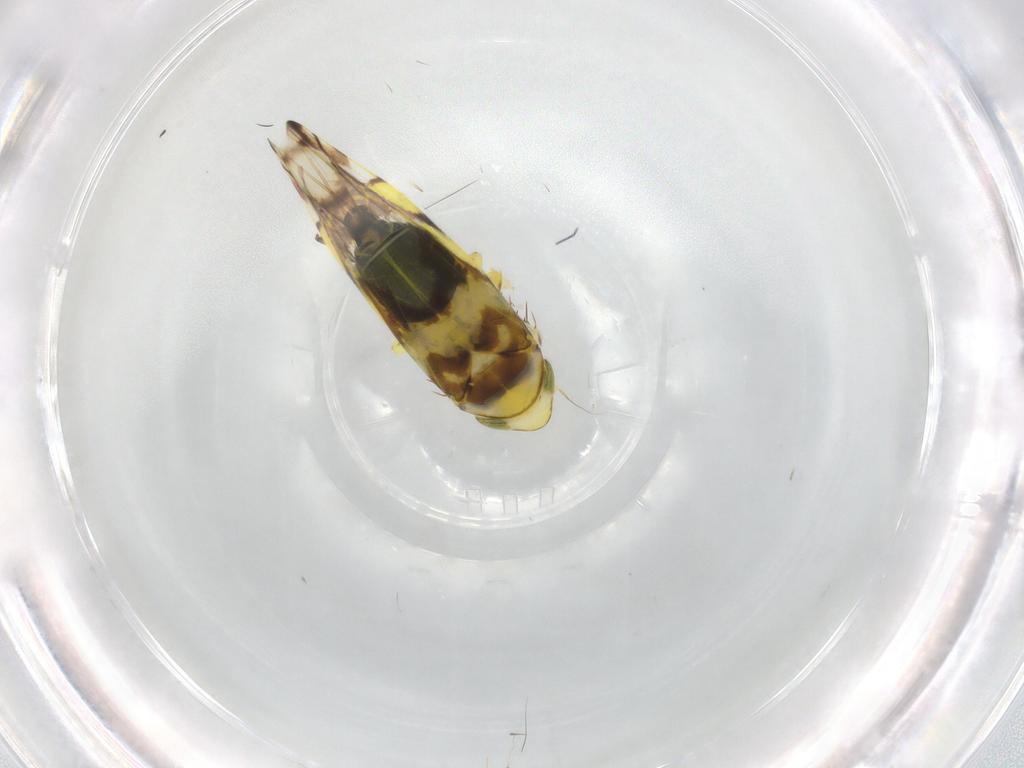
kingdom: Animalia
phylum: Arthropoda
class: Insecta
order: Hemiptera
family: Cicadellidae
